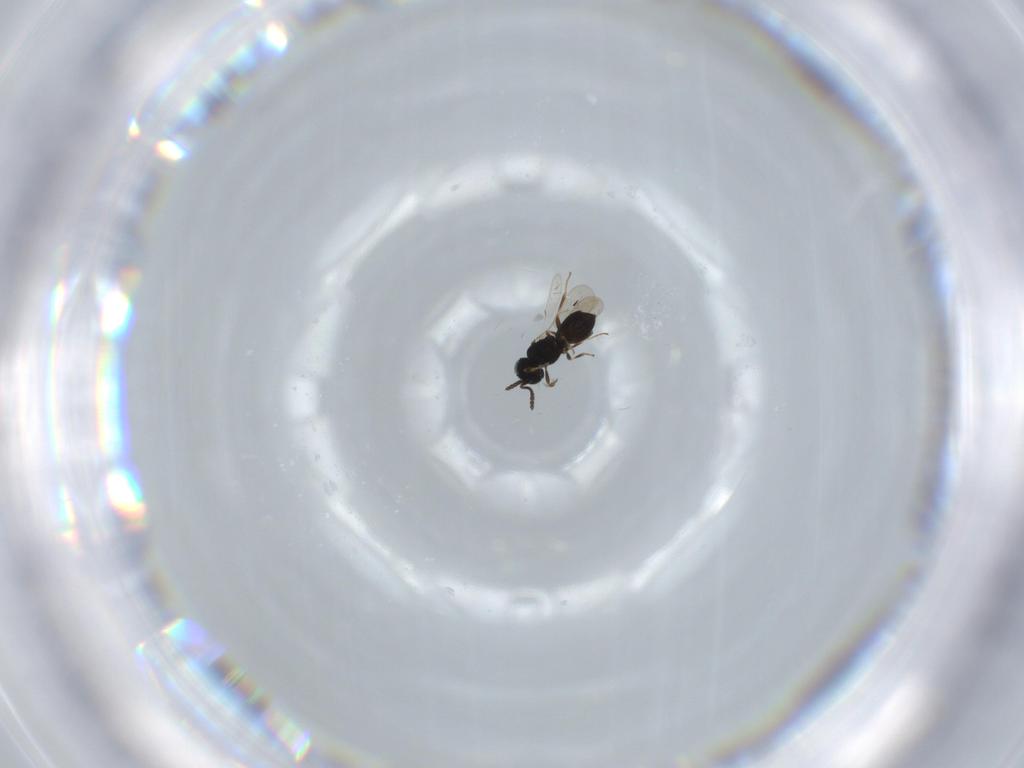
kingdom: Animalia
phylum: Arthropoda
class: Insecta
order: Hymenoptera
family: Scelionidae
